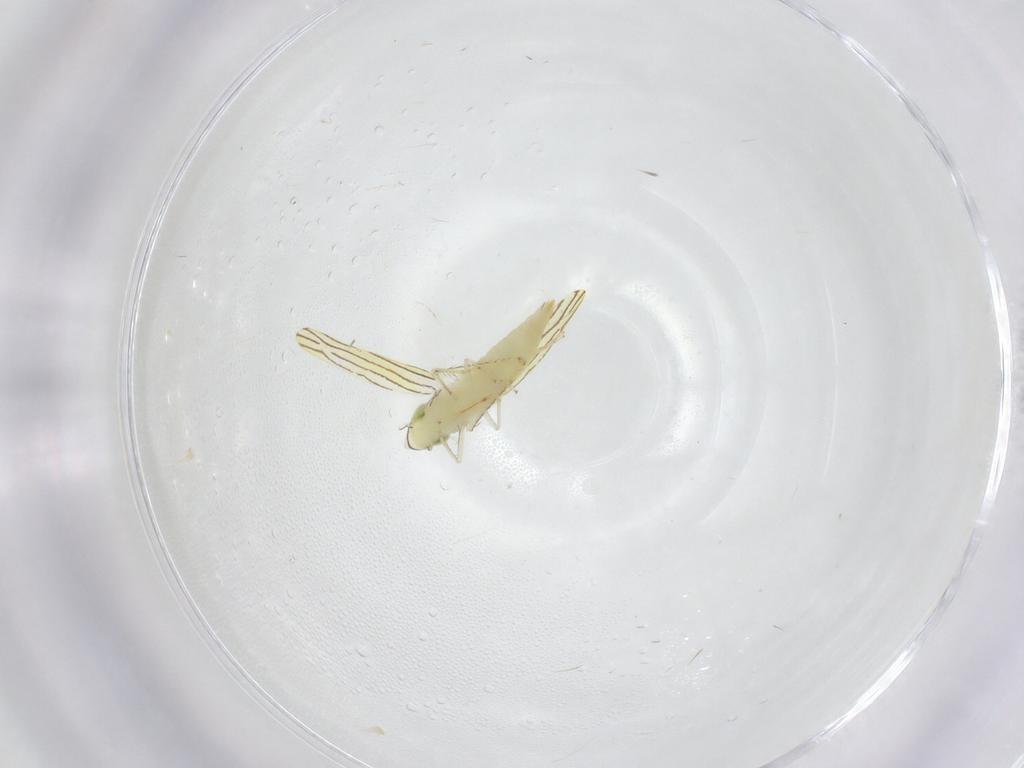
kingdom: Animalia
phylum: Arthropoda
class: Insecta
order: Hemiptera
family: Cicadellidae
